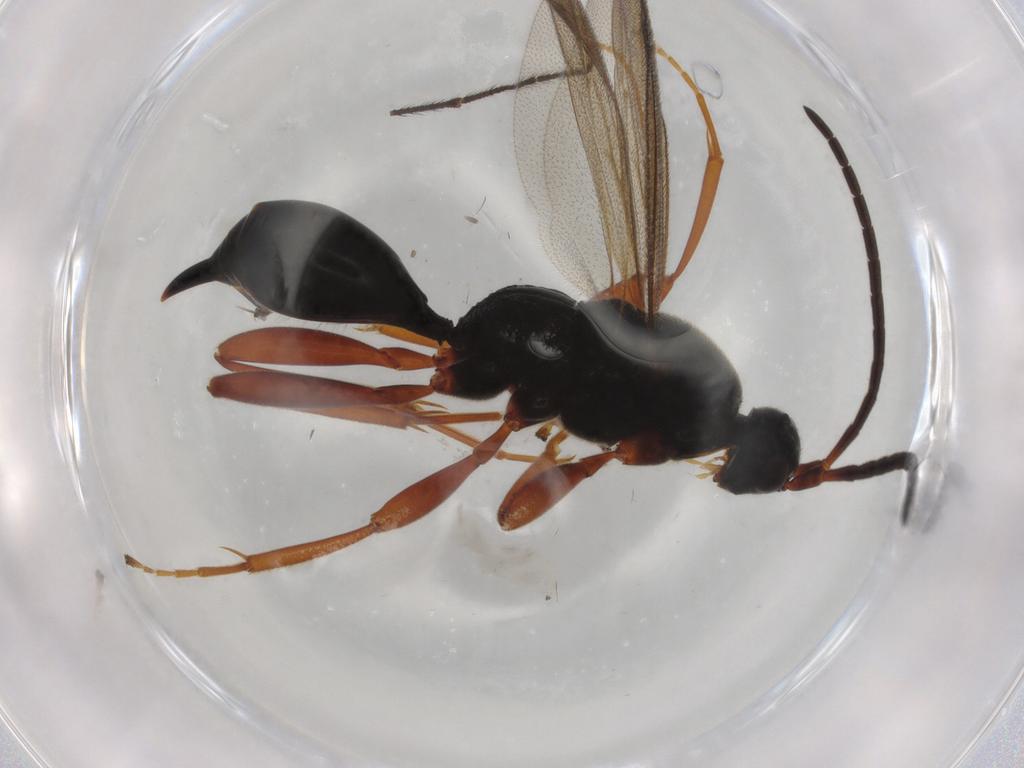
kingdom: Animalia
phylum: Arthropoda
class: Insecta
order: Hymenoptera
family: Proctotrupidae
